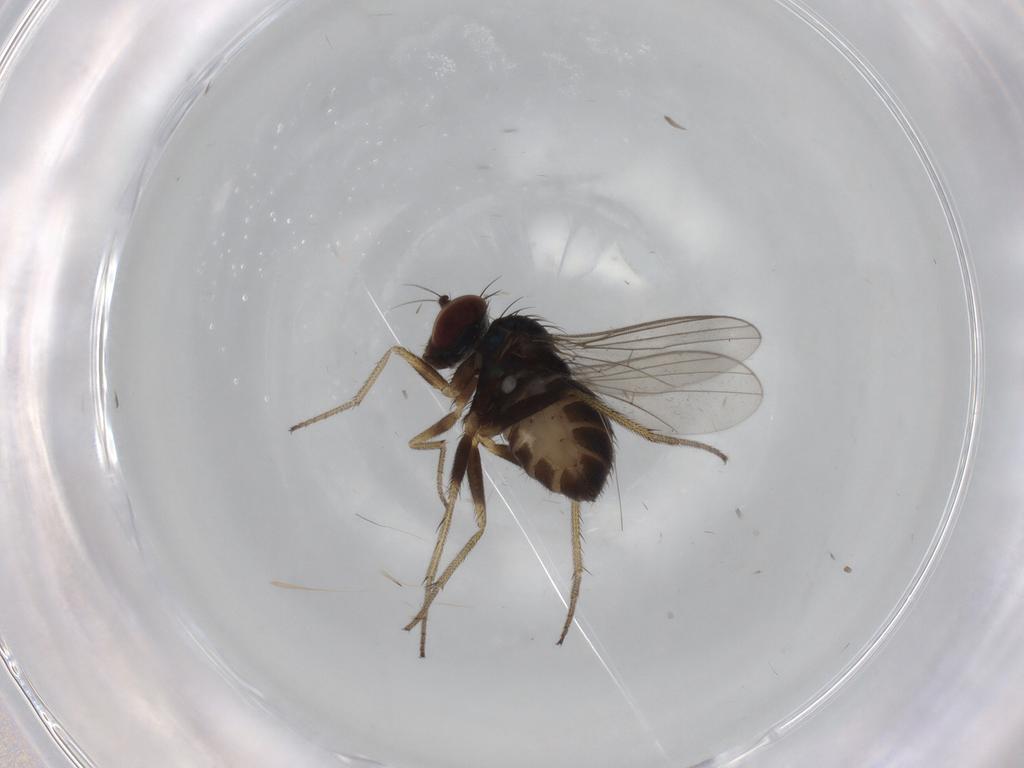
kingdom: Animalia
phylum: Arthropoda
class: Insecta
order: Diptera
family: Dolichopodidae
